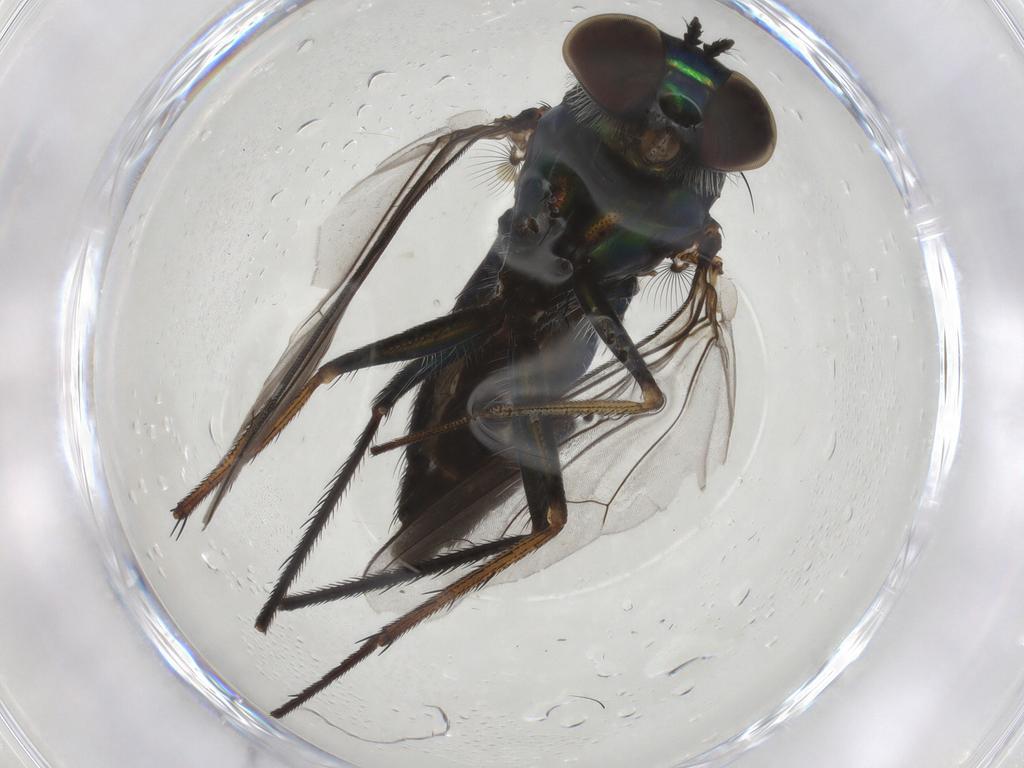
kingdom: Animalia
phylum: Arthropoda
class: Insecta
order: Diptera
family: Dolichopodidae
